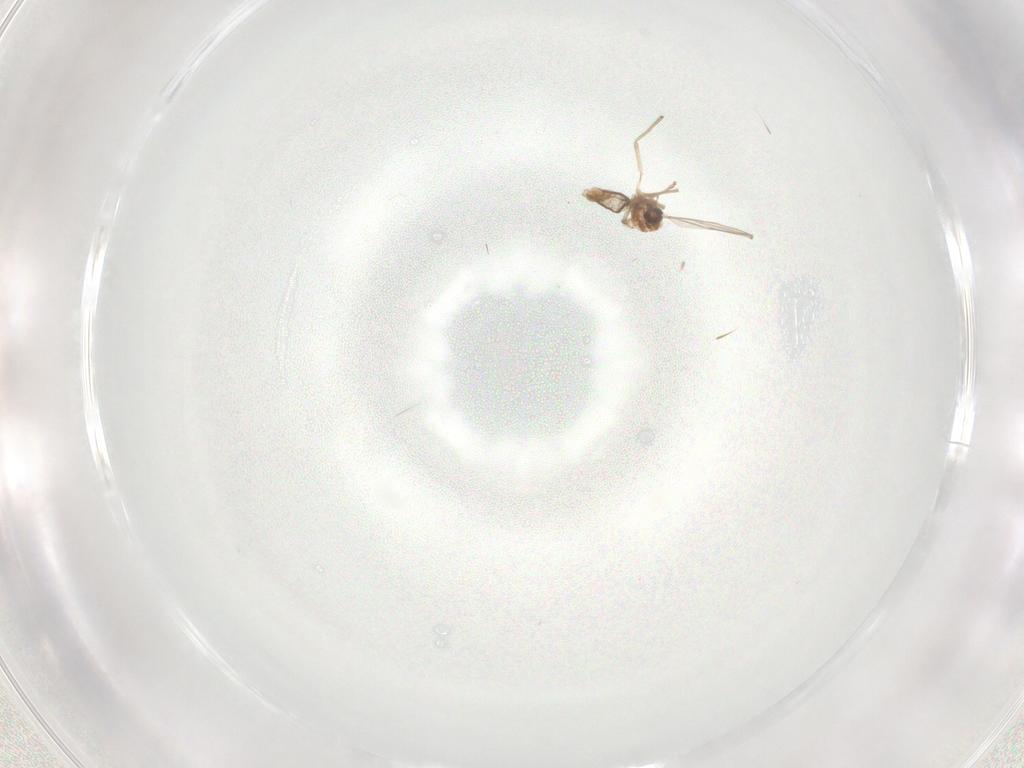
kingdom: Animalia
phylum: Arthropoda
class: Insecta
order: Diptera
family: Chironomidae
